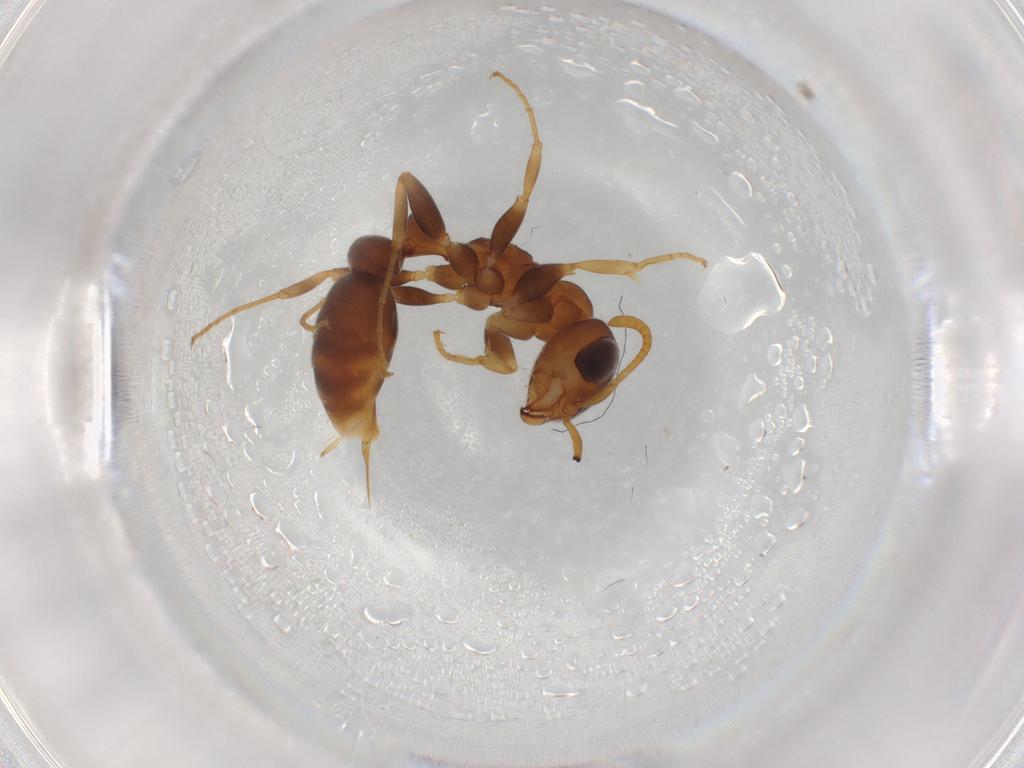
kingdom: Animalia
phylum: Arthropoda
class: Insecta
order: Hymenoptera
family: Formicidae
